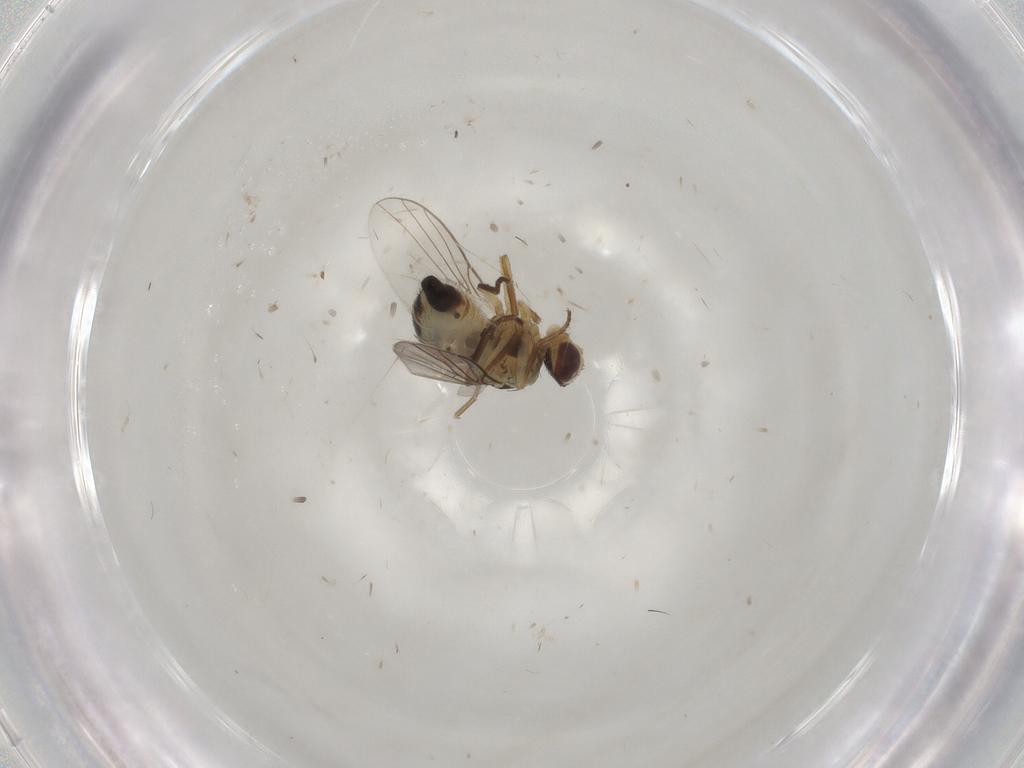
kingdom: Animalia
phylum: Arthropoda
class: Insecta
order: Diptera
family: Agromyzidae
